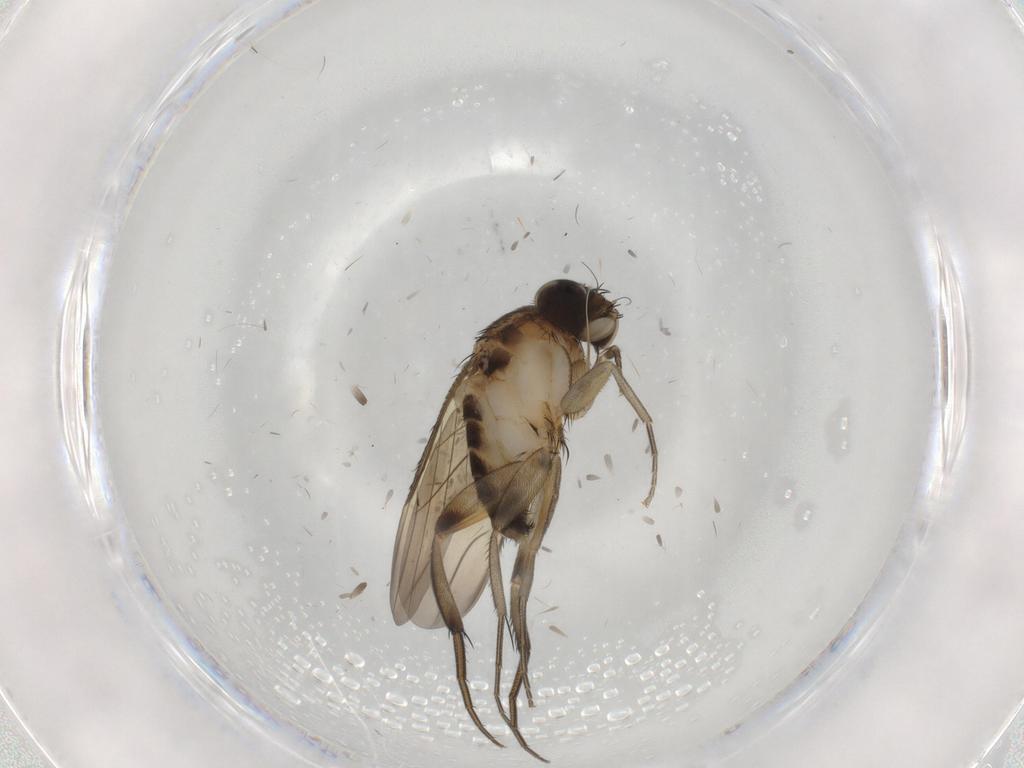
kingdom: Animalia
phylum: Arthropoda
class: Insecta
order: Diptera
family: Phoridae
